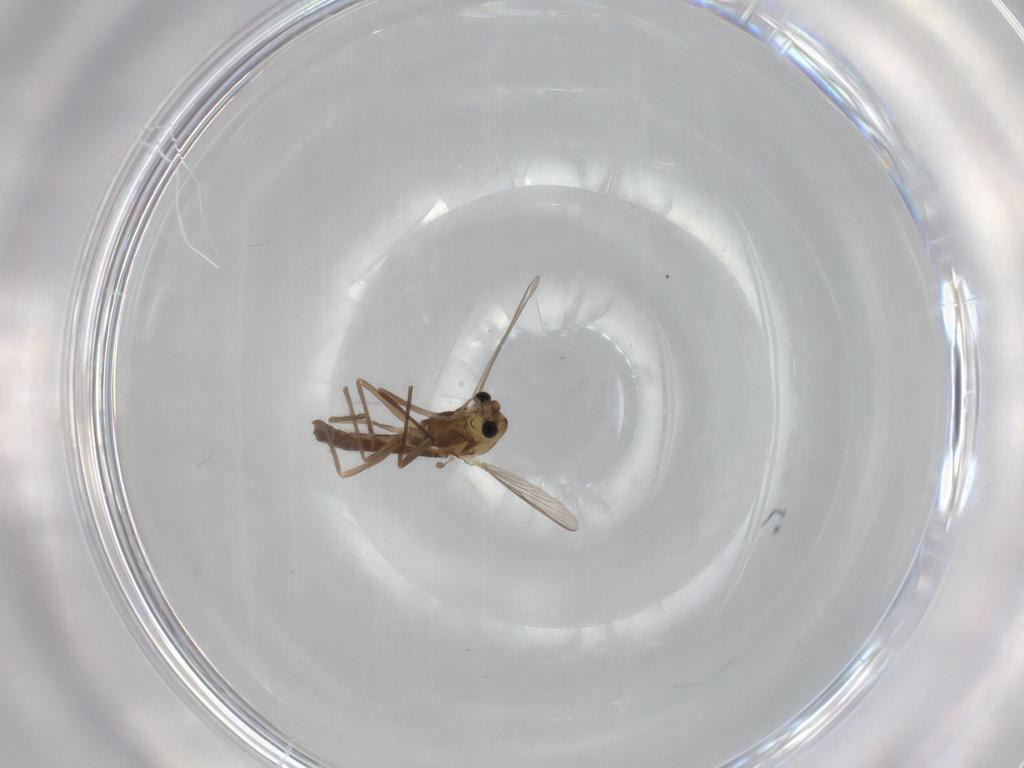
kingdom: Animalia
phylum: Arthropoda
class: Insecta
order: Diptera
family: Chironomidae
